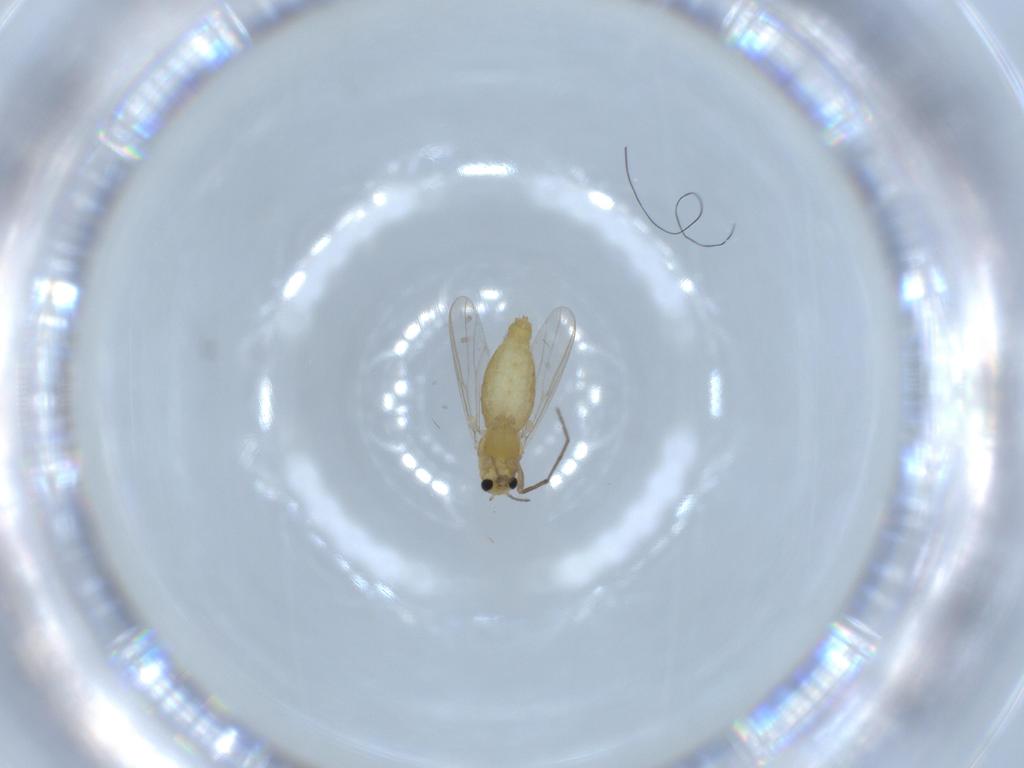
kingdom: Animalia
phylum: Arthropoda
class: Insecta
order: Diptera
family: Chironomidae
